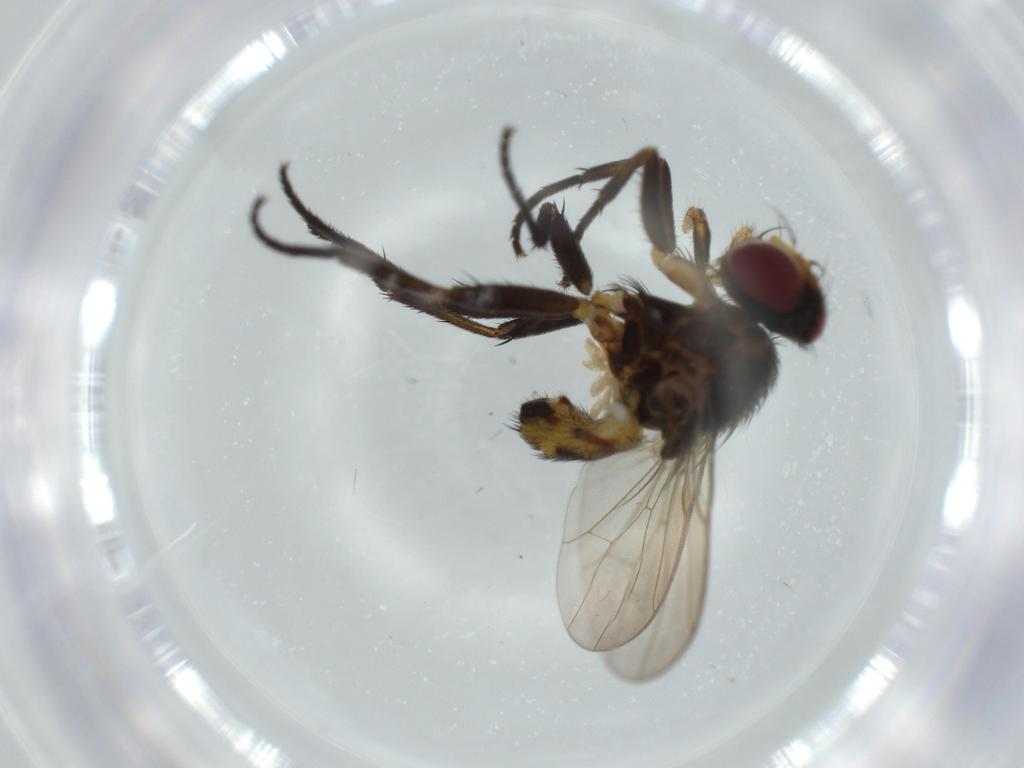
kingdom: Animalia
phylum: Arthropoda
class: Insecta
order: Diptera
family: Anthomyiidae
